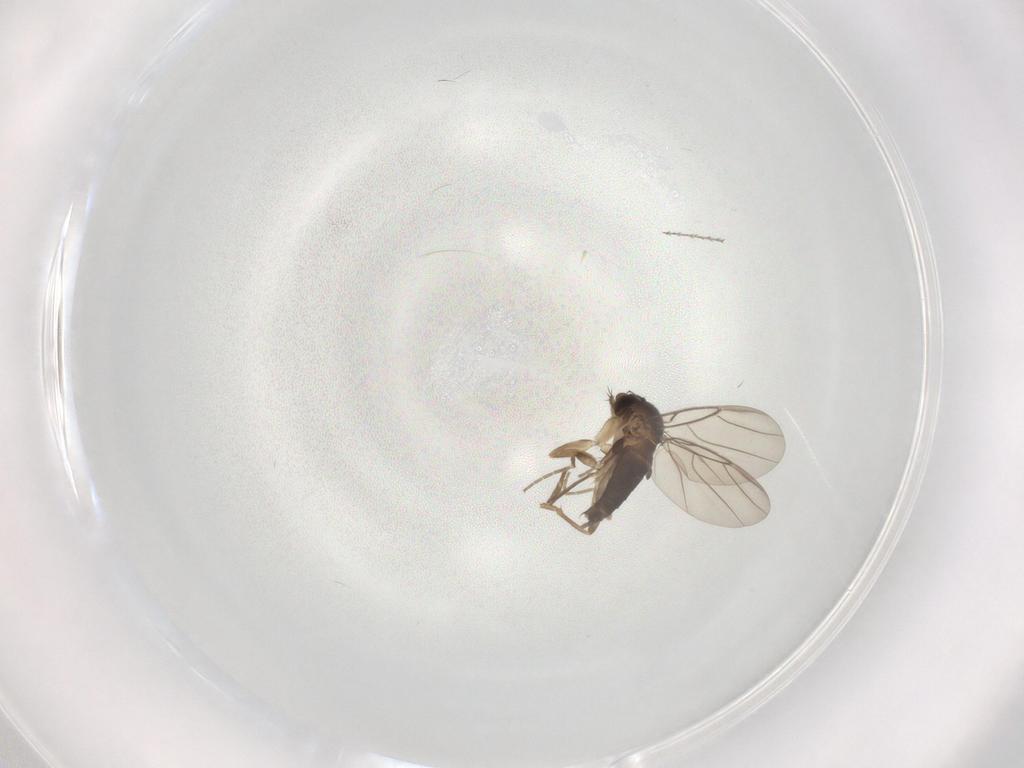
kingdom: Animalia
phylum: Arthropoda
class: Insecta
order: Diptera
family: Phoridae
